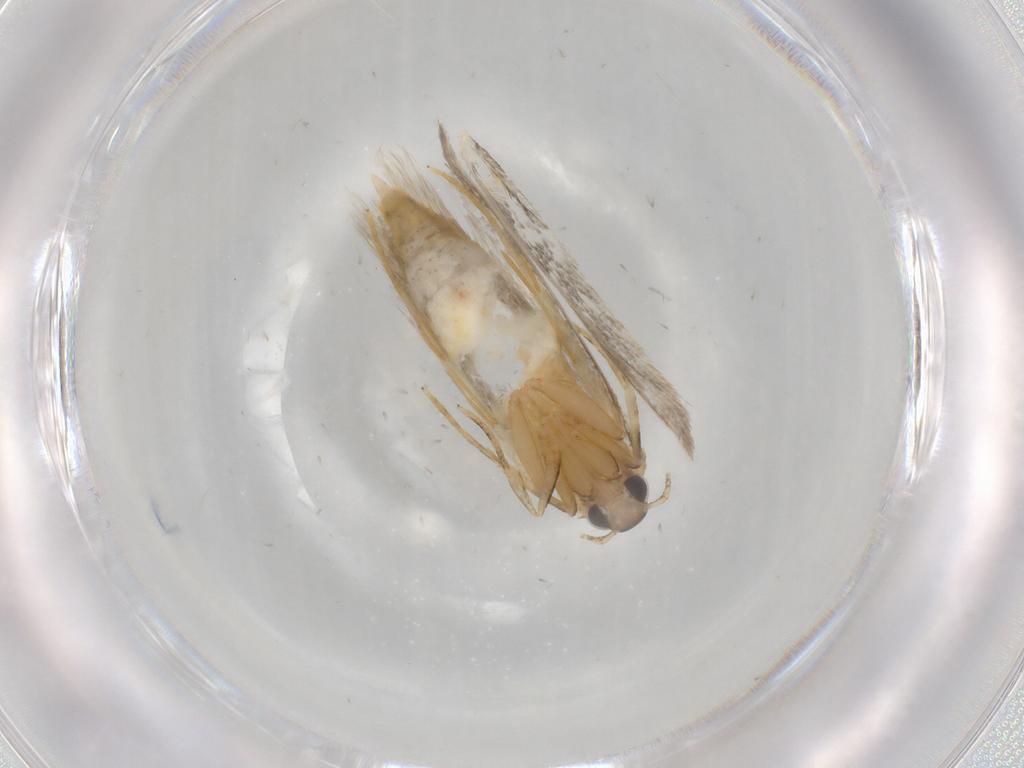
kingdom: Animalia
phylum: Arthropoda
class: Insecta
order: Lepidoptera
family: Autostichidae
